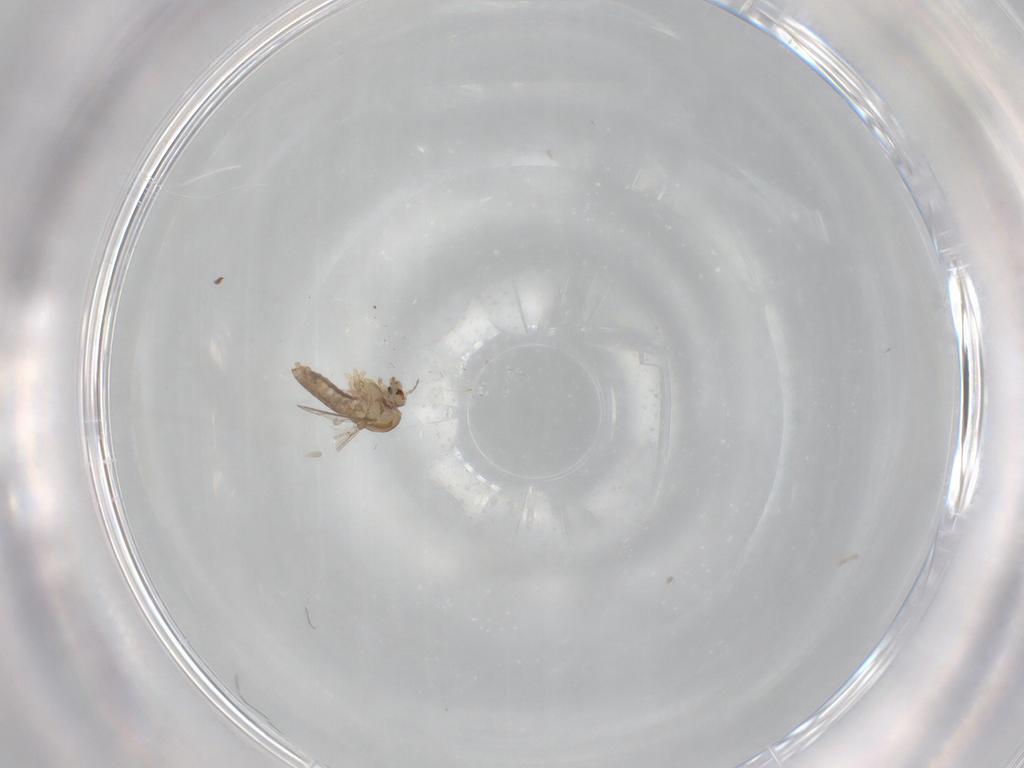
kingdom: Animalia
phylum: Arthropoda
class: Insecta
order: Diptera
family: Chironomidae
